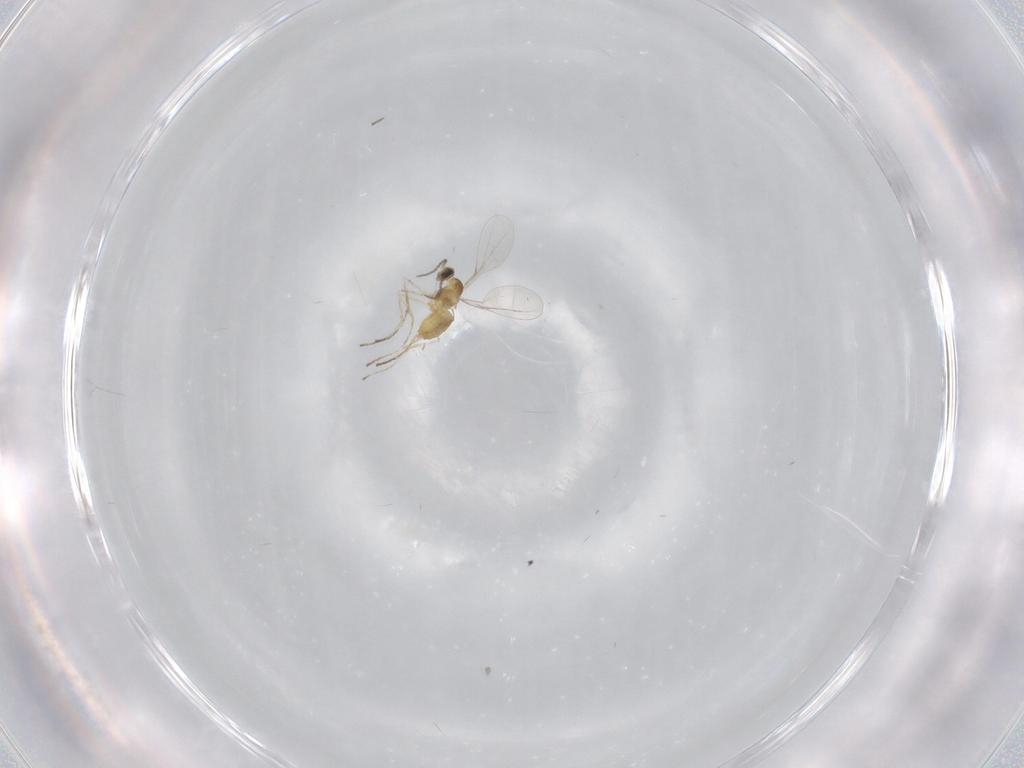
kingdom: Animalia
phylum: Arthropoda
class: Insecta
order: Diptera
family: Cecidomyiidae
